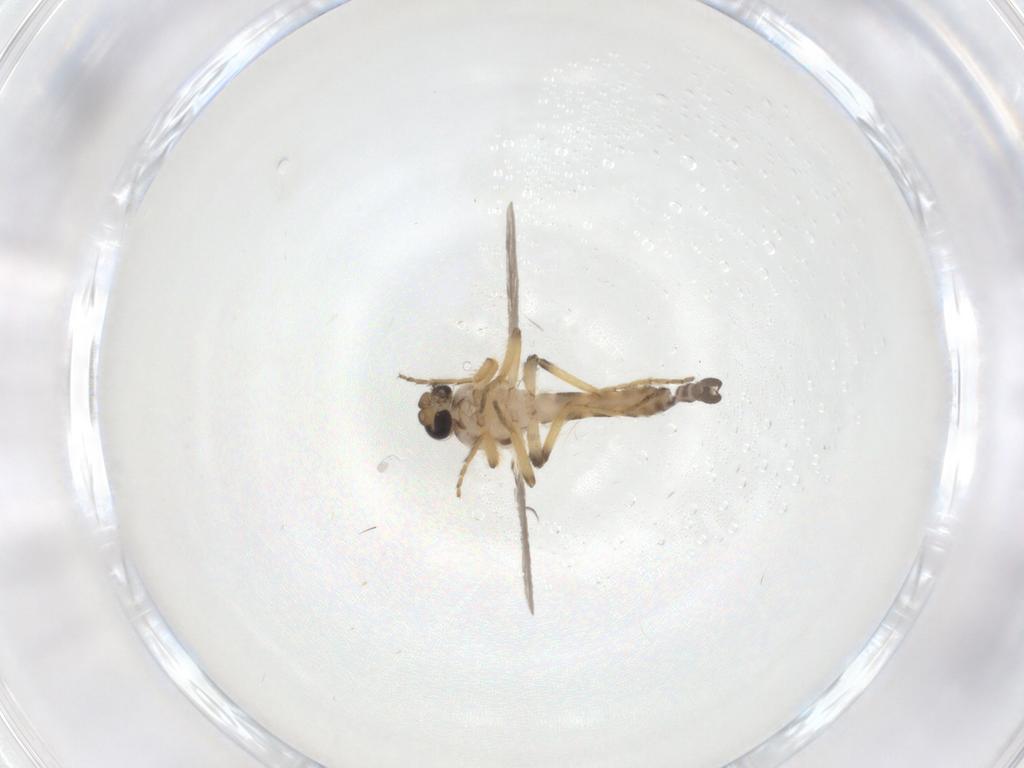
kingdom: Animalia
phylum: Arthropoda
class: Insecta
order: Diptera
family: Ceratopogonidae
